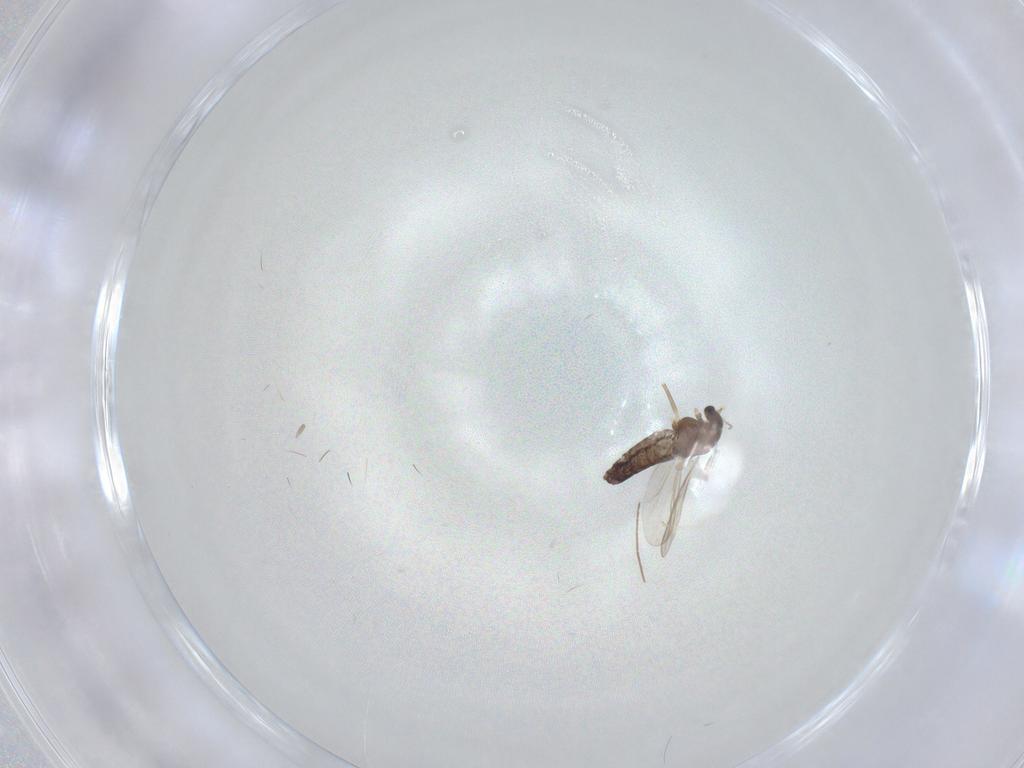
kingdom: Animalia
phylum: Arthropoda
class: Insecta
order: Diptera
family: Chironomidae
